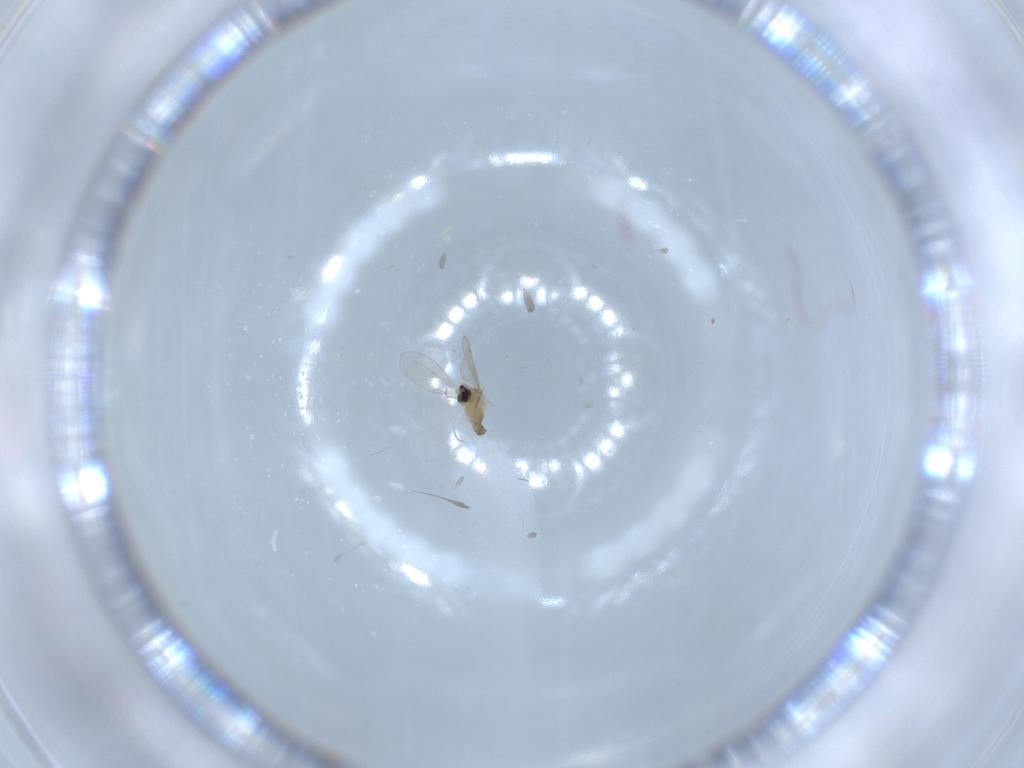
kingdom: Animalia
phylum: Arthropoda
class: Insecta
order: Diptera
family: Cecidomyiidae
